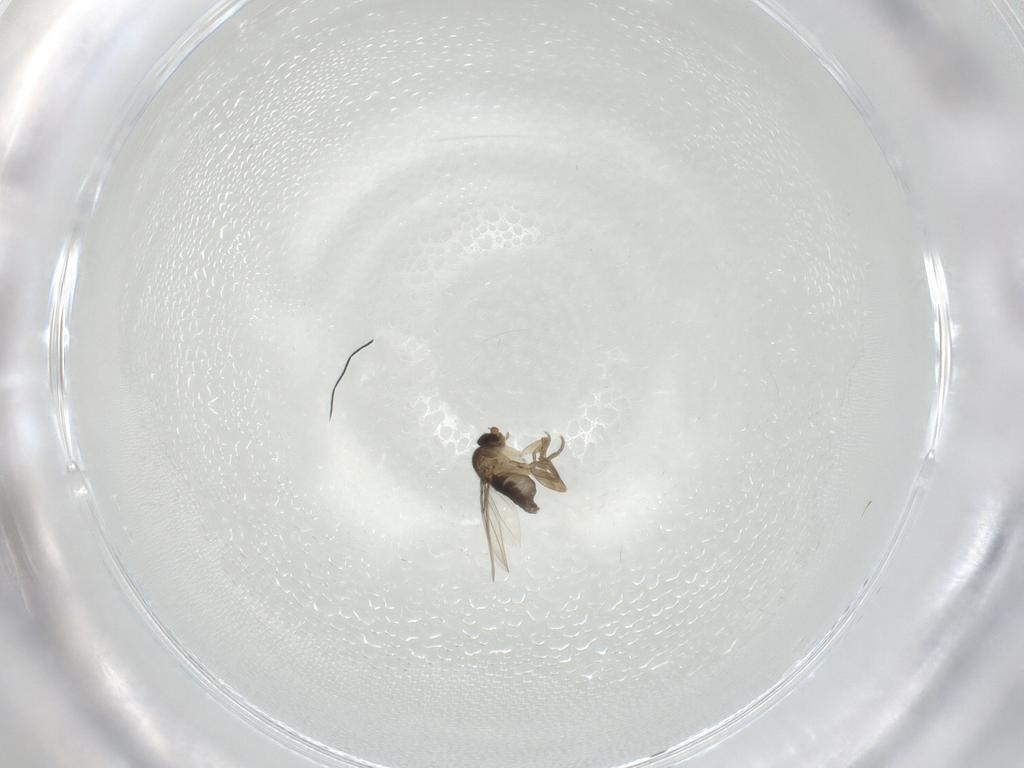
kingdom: Animalia
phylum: Arthropoda
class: Insecta
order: Diptera
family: Phoridae
